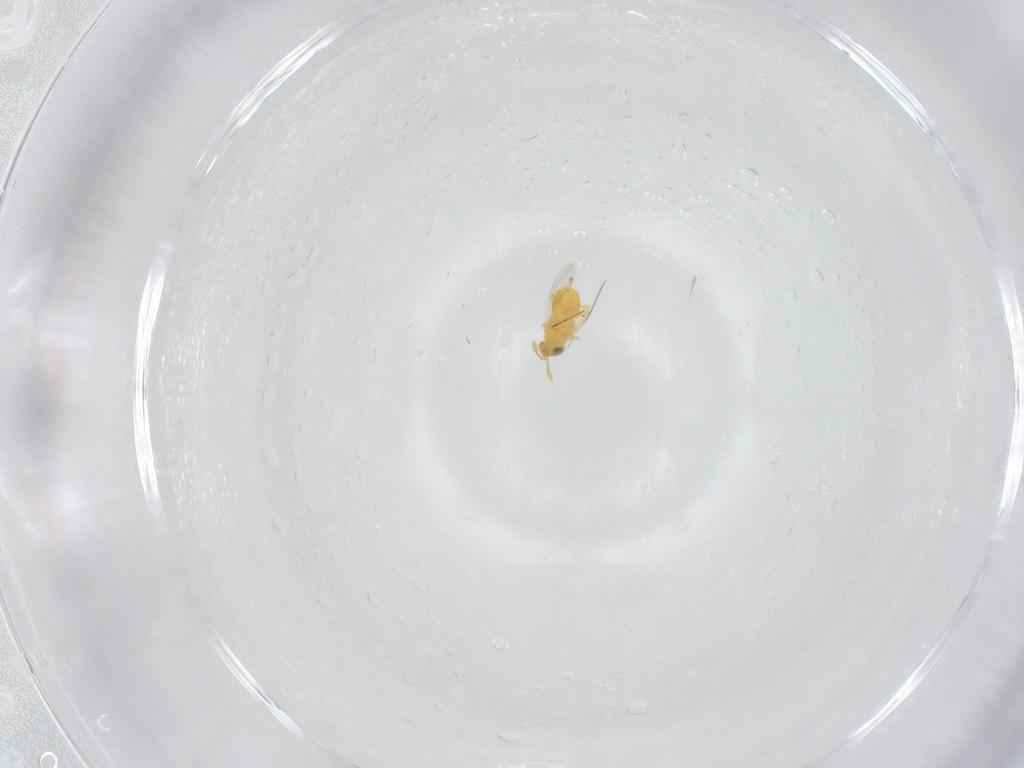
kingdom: Animalia
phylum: Arthropoda
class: Insecta
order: Hymenoptera
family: Encyrtidae
